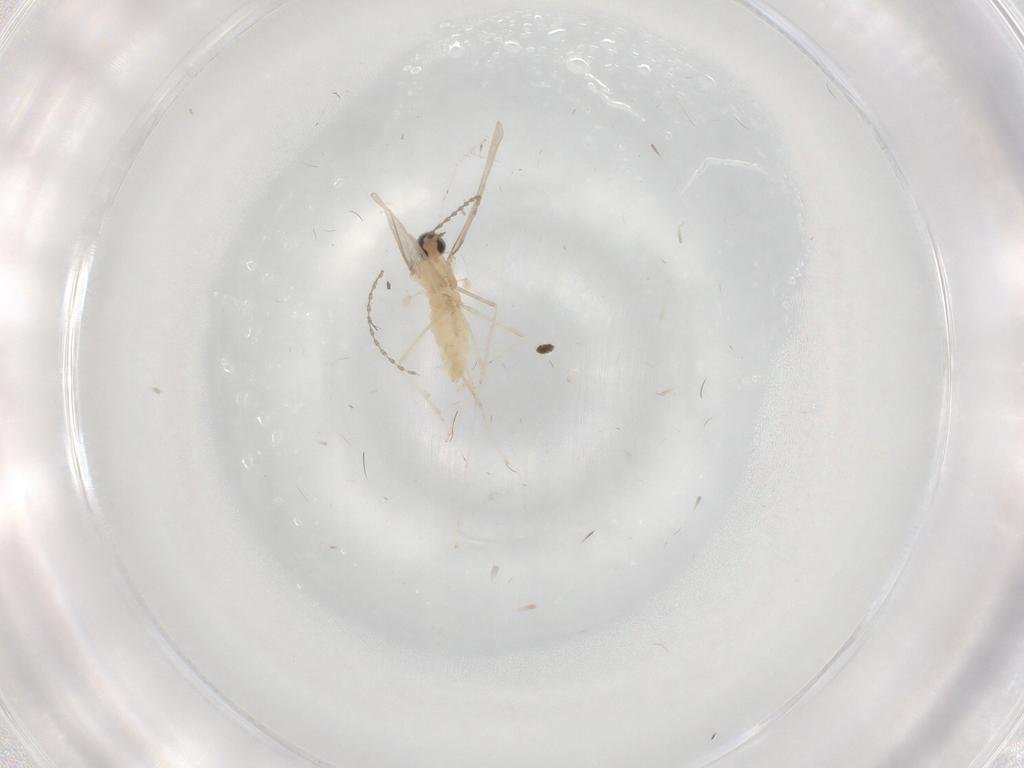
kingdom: Animalia
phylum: Arthropoda
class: Insecta
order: Diptera
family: Cecidomyiidae
